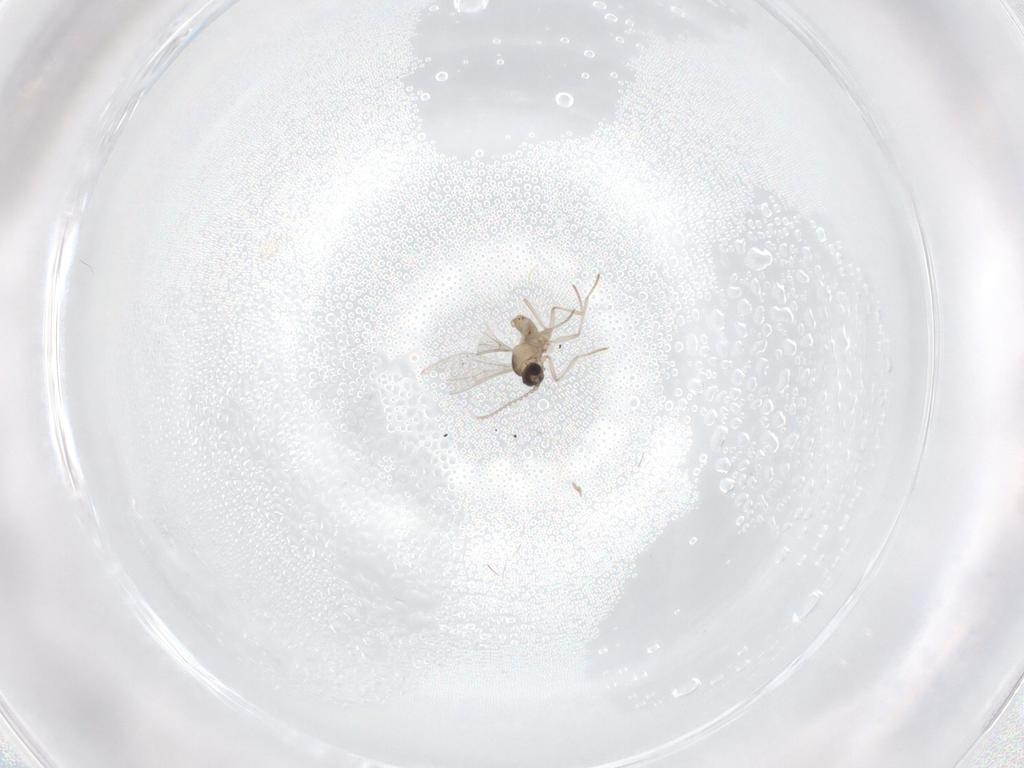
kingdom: Animalia
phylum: Arthropoda
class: Insecta
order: Diptera
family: Cecidomyiidae
